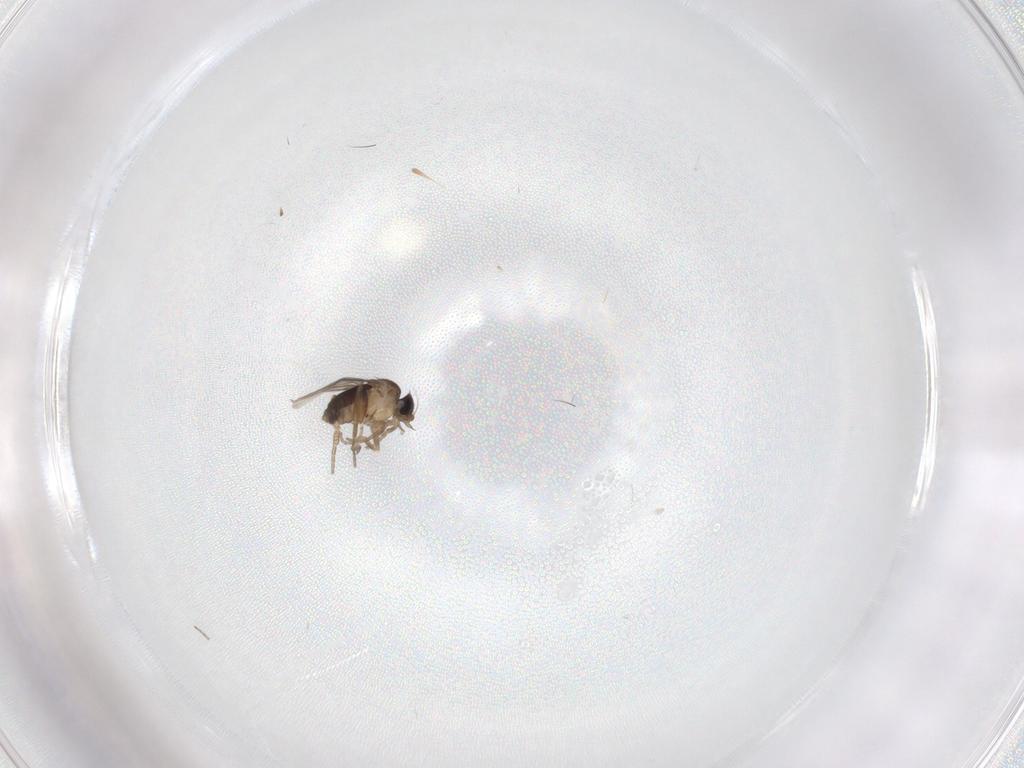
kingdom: Animalia
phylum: Arthropoda
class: Insecta
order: Diptera
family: Phoridae
